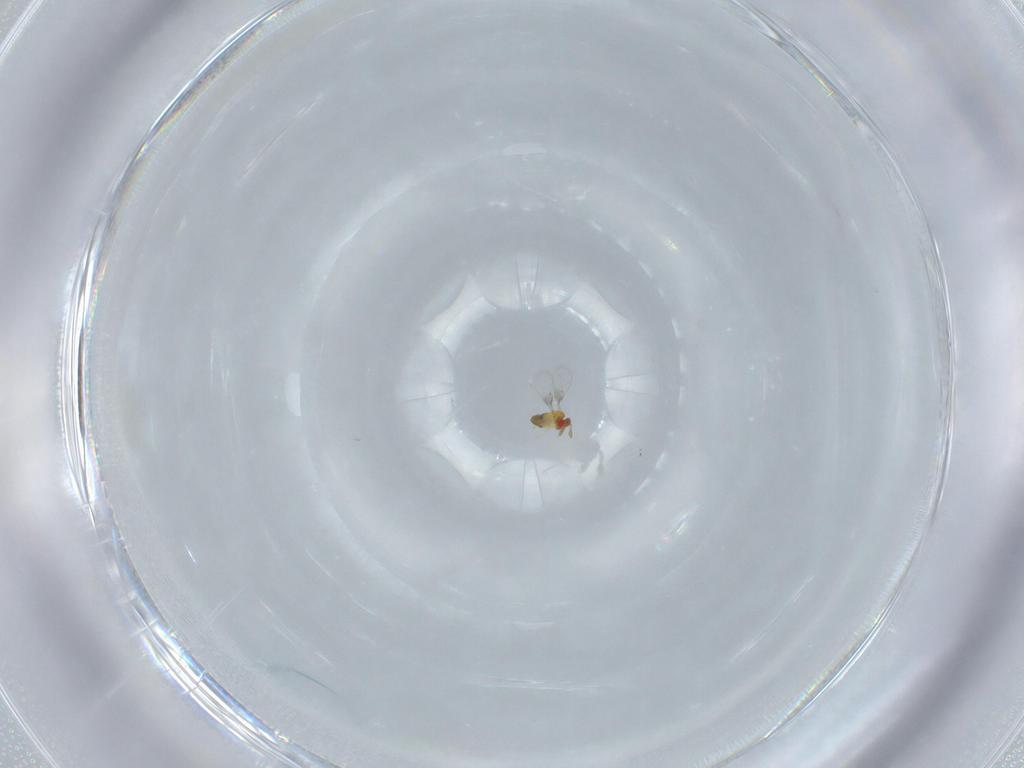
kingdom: Animalia
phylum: Arthropoda
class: Insecta
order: Hymenoptera
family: Trichogrammatidae
